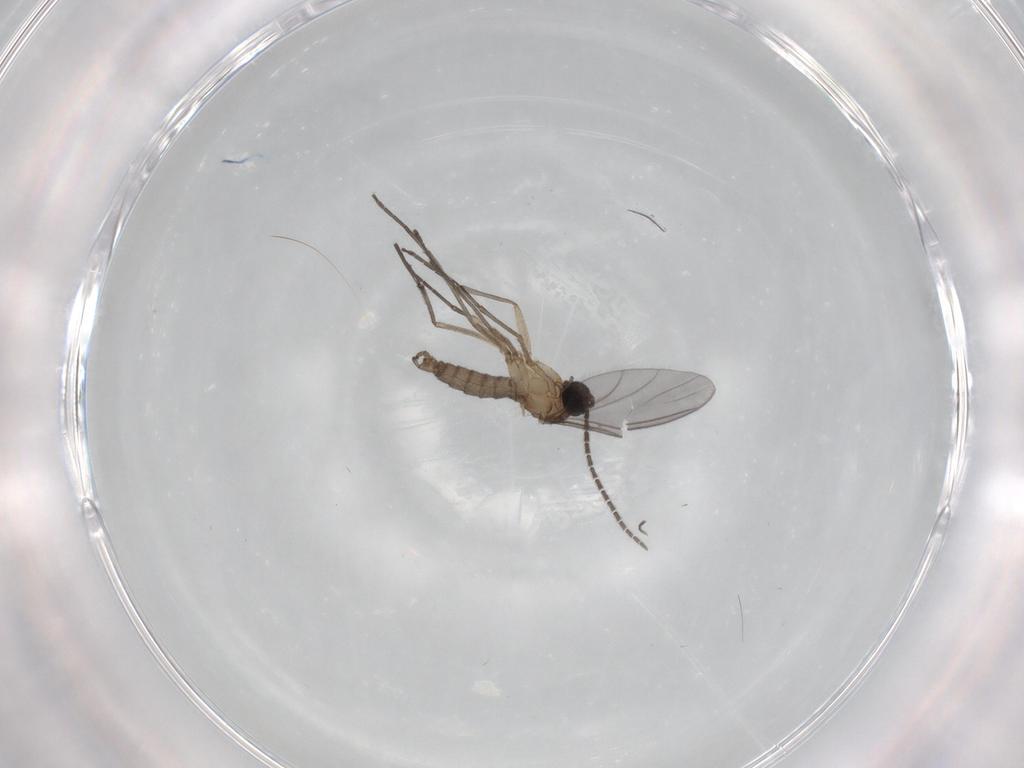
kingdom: Animalia
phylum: Arthropoda
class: Insecta
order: Diptera
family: Sciaridae
